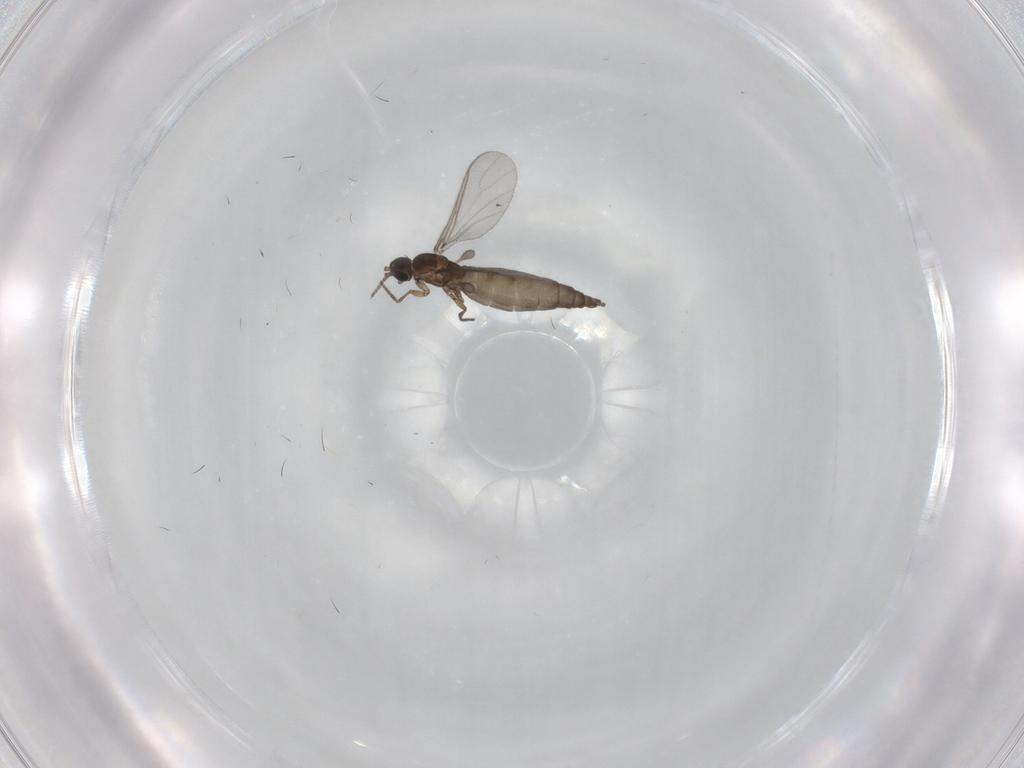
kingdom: Animalia
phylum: Arthropoda
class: Insecta
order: Diptera
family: Sciaridae
